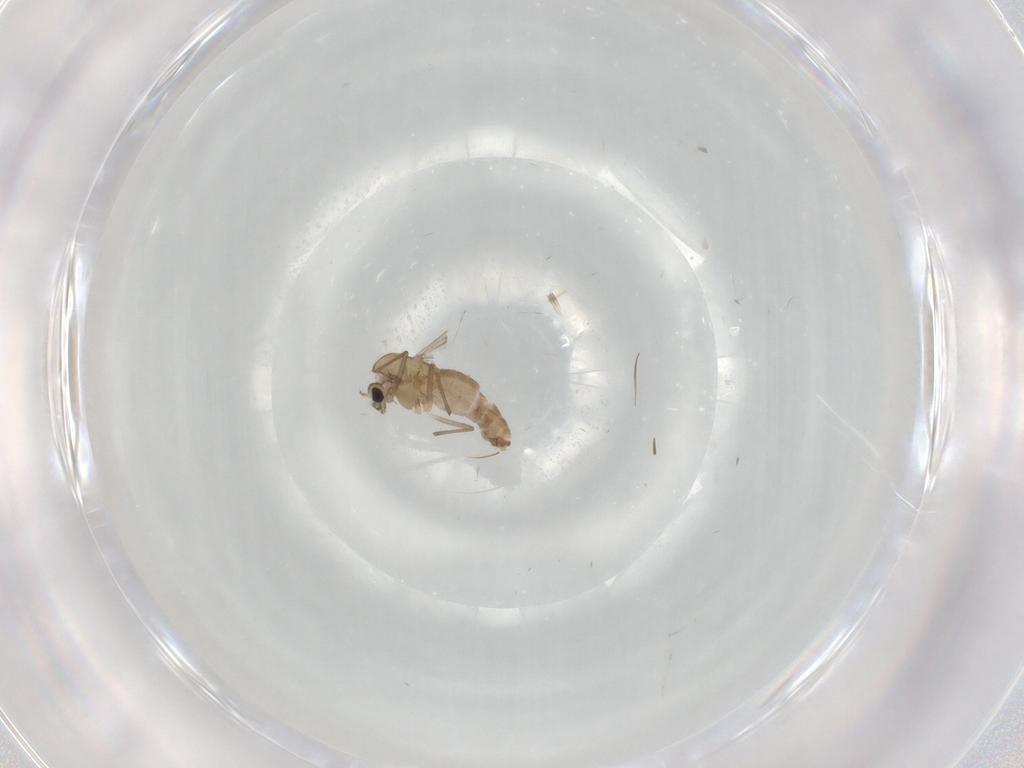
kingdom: Animalia
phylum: Arthropoda
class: Insecta
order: Diptera
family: Chironomidae
